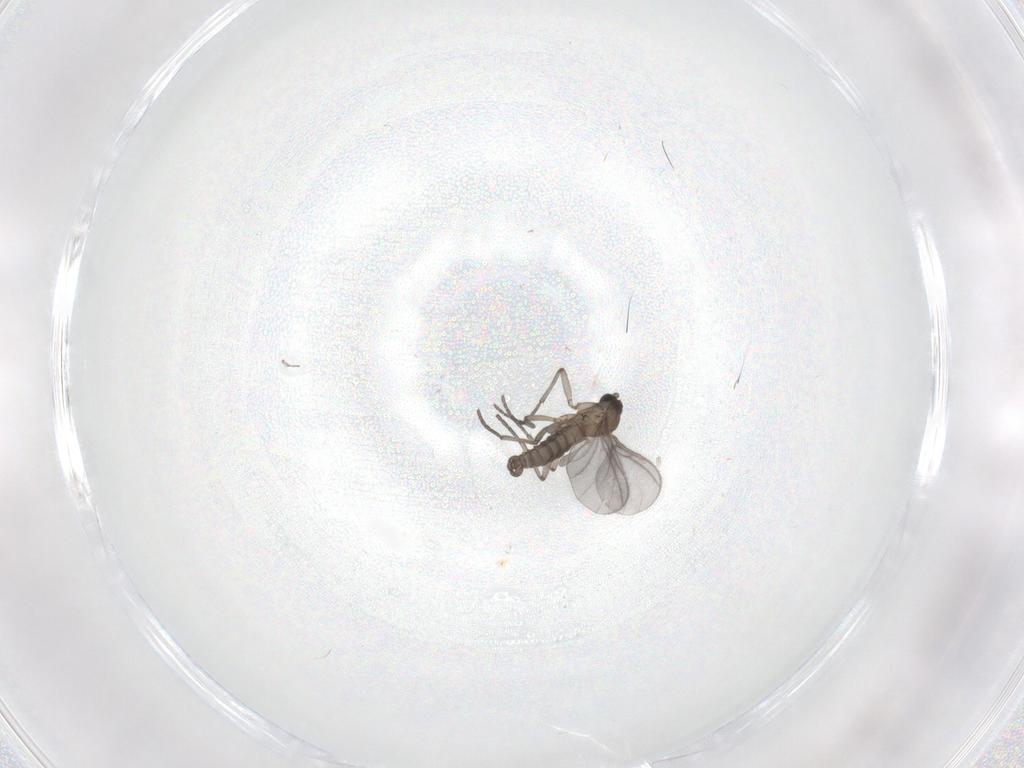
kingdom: Animalia
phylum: Arthropoda
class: Insecta
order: Diptera
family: Sciaridae
